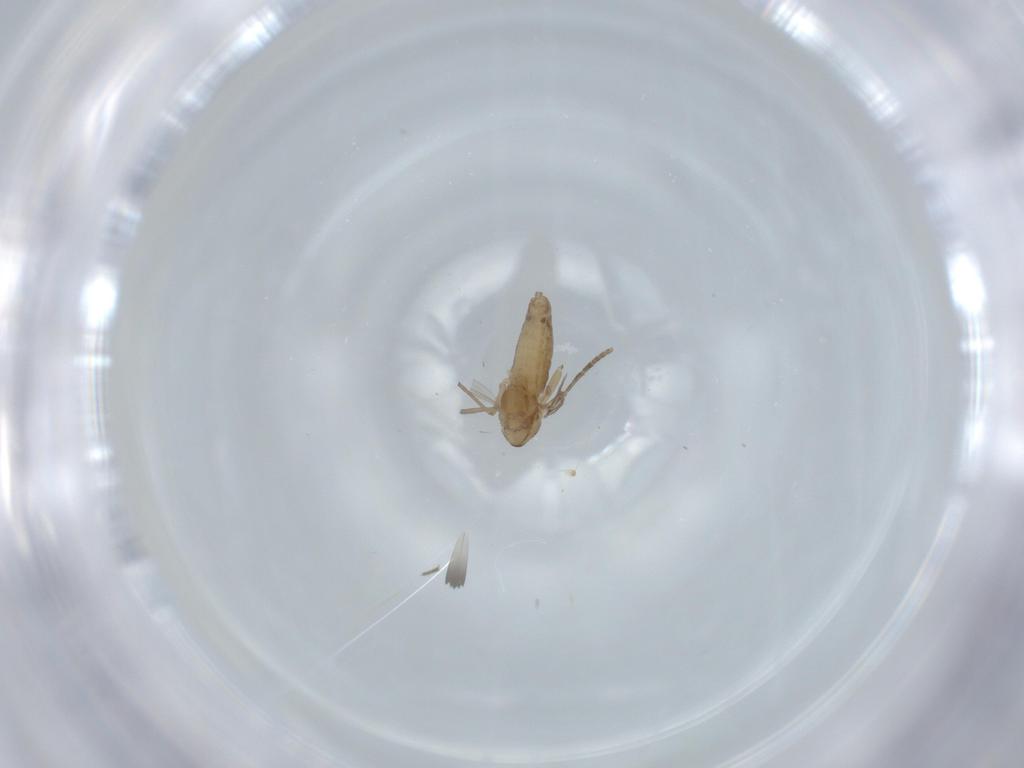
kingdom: Animalia
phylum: Arthropoda
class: Insecta
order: Diptera
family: Chironomidae
